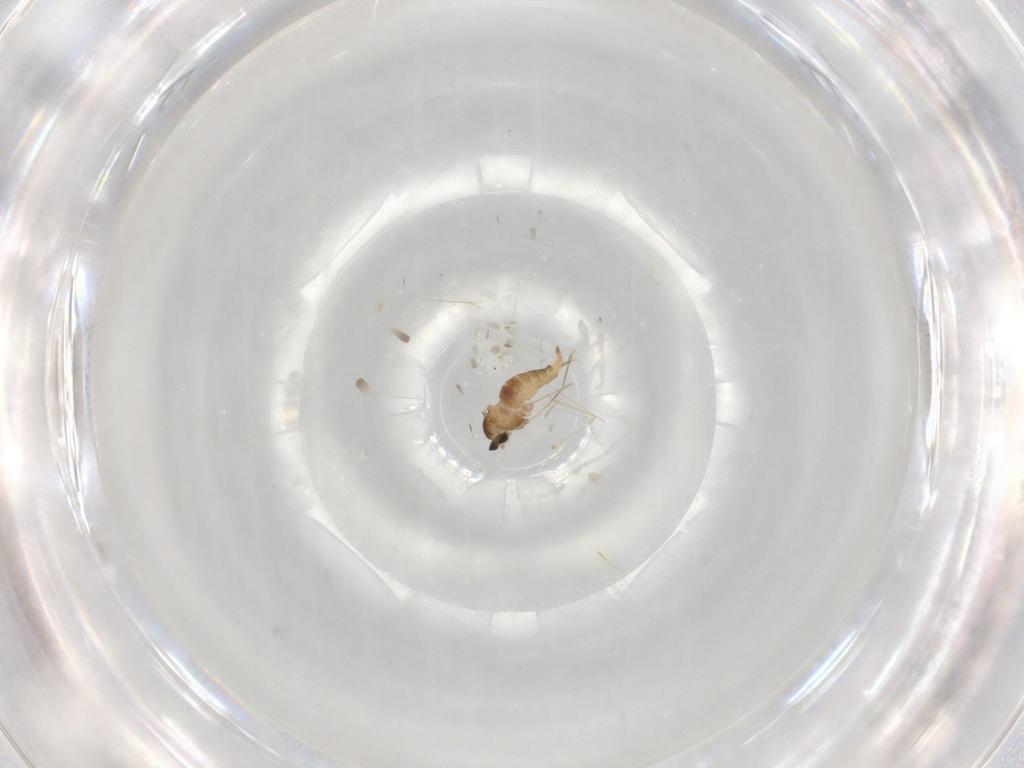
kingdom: Animalia
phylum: Arthropoda
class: Insecta
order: Diptera
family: Cecidomyiidae
